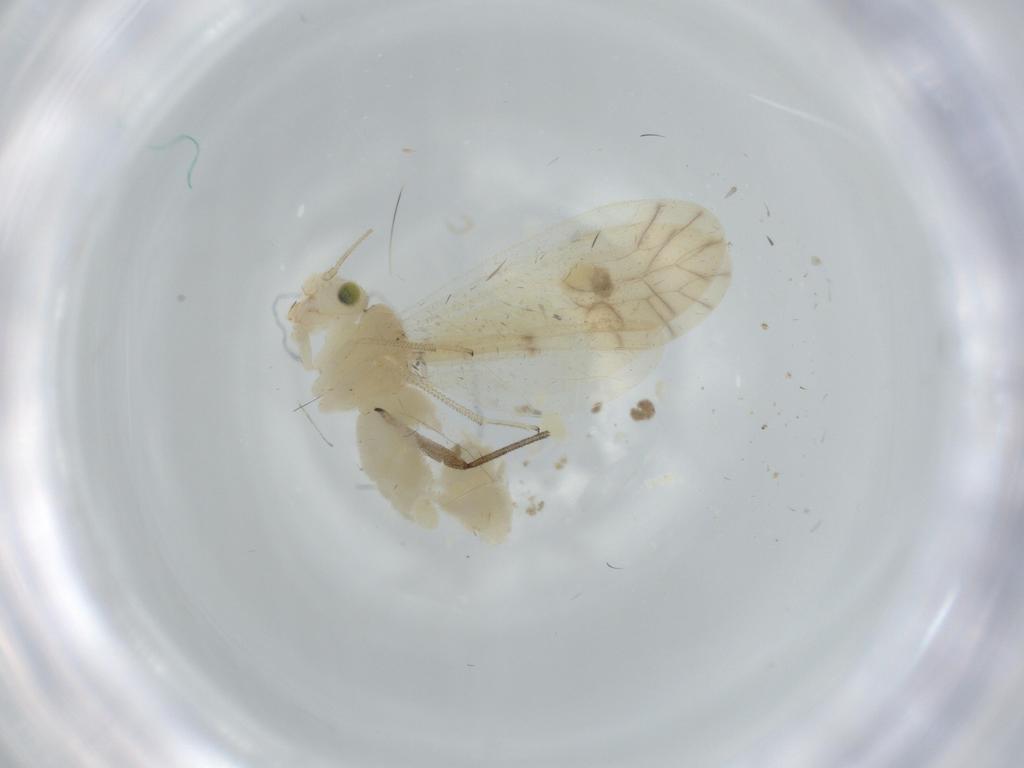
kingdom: Animalia
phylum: Arthropoda
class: Insecta
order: Psocodea
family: Caeciliusidae
